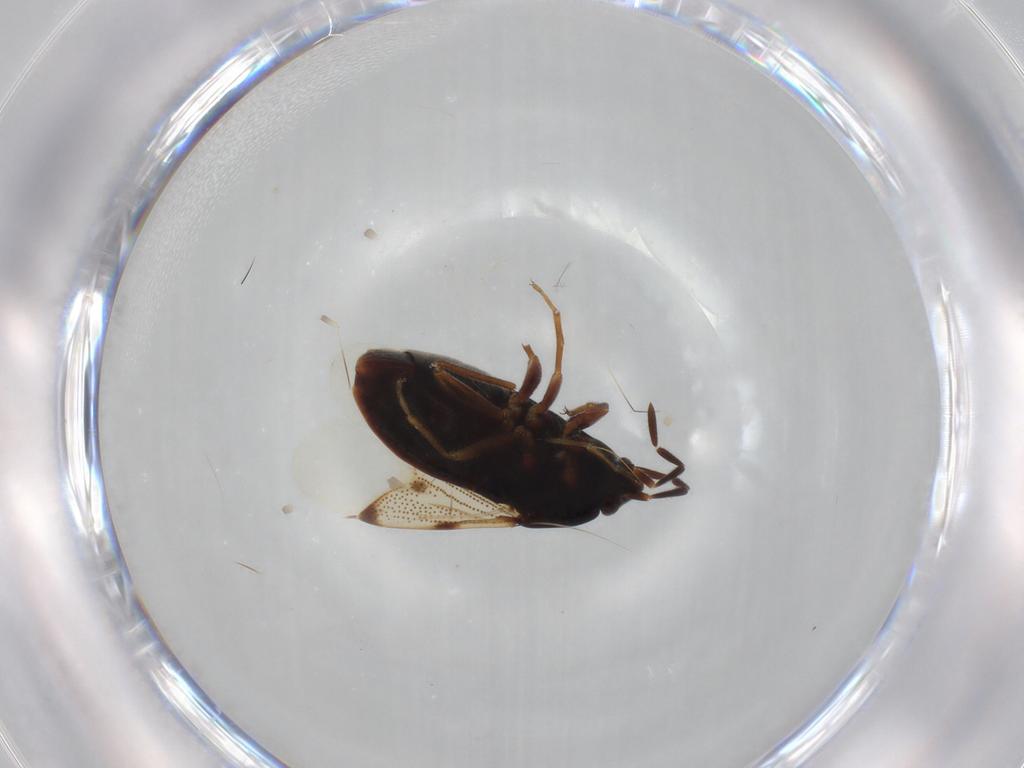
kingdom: Animalia
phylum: Arthropoda
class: Insecta
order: Hemiptera
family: Rhyparochromidae
